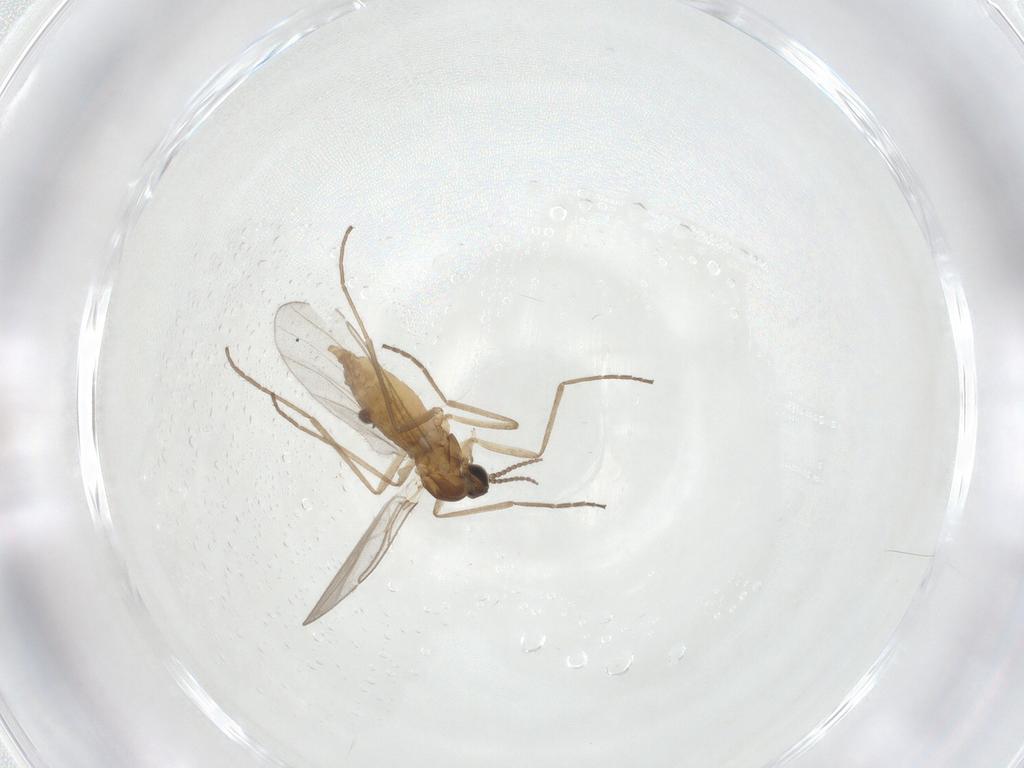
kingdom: Animalia
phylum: Arthropoda
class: Insecta
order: Diptera
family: Cecidomyiidae
